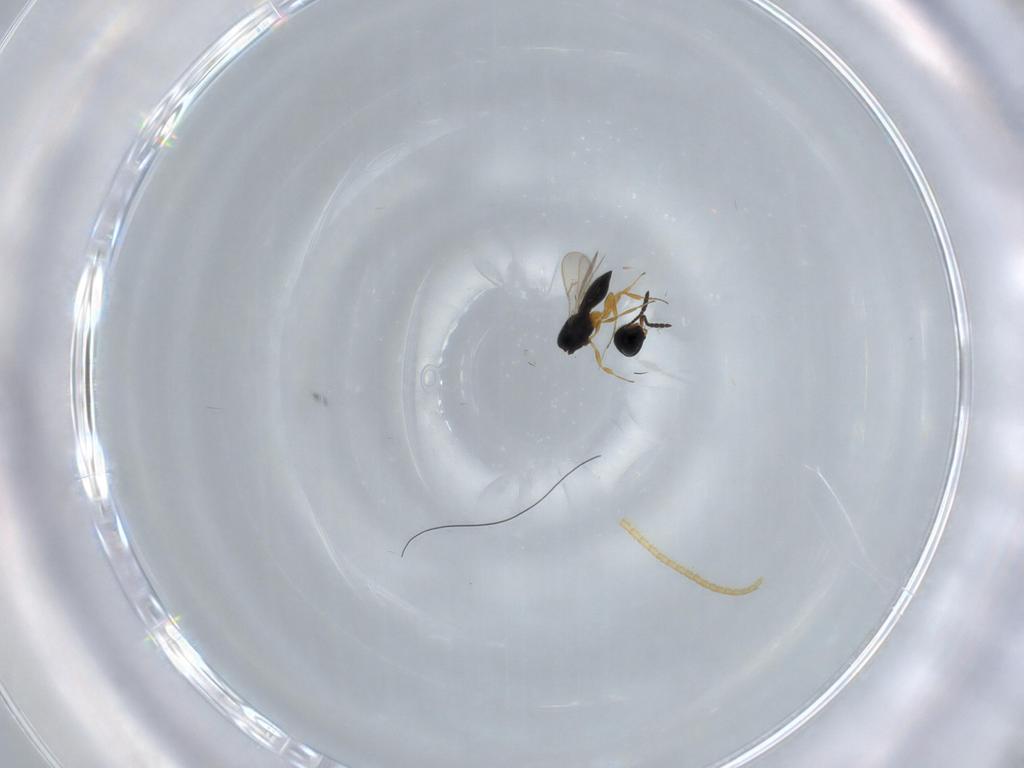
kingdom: Animalia
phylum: Arthropoda
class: Insecta
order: Hymenoptera
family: Scelionidae
